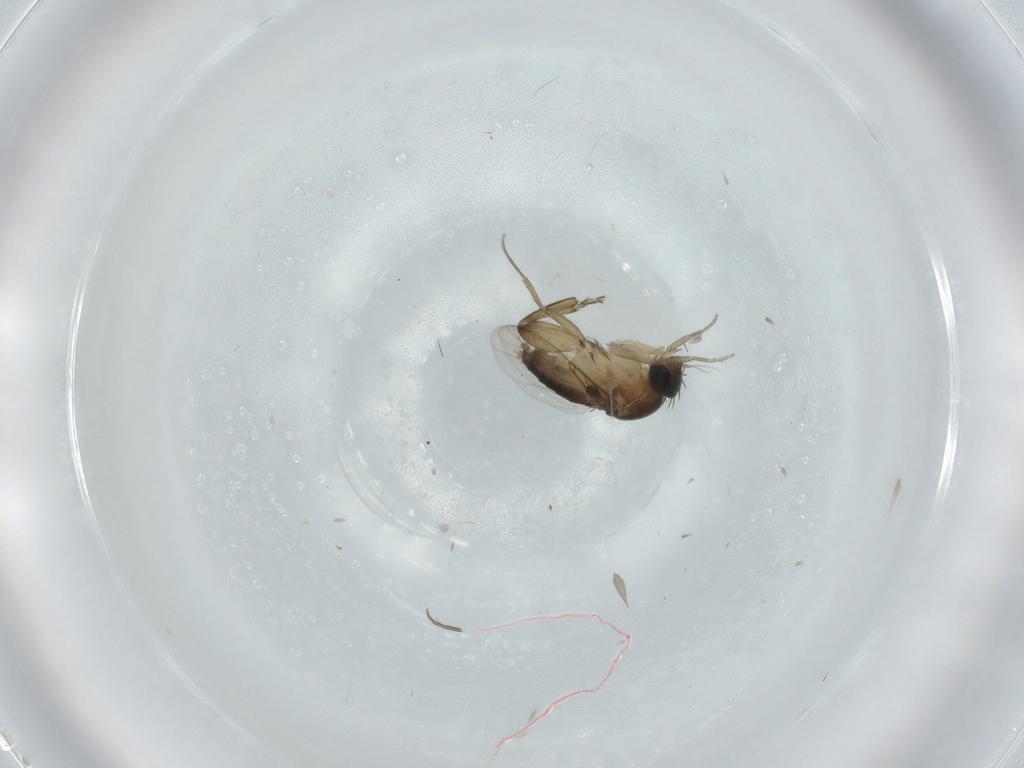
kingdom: Animalia
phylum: Arthropoda
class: Insecta
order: Diptera
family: Phoridae
